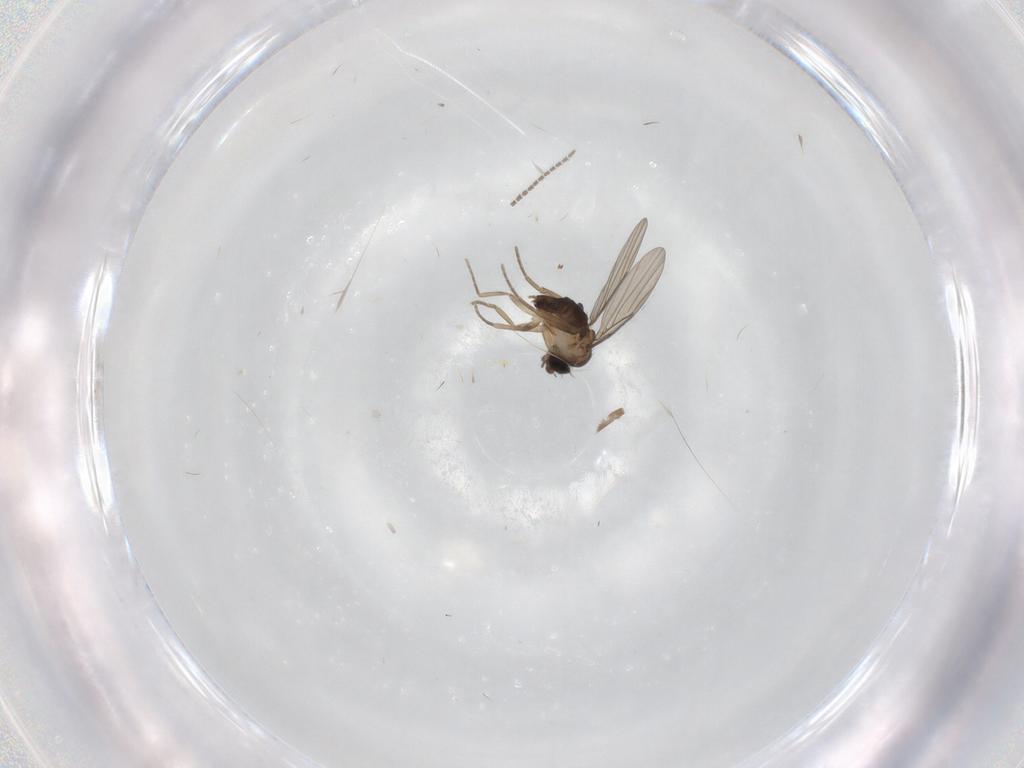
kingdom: Animalia
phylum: Arthropoda
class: Insecta
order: Diptera
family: Phoridae
